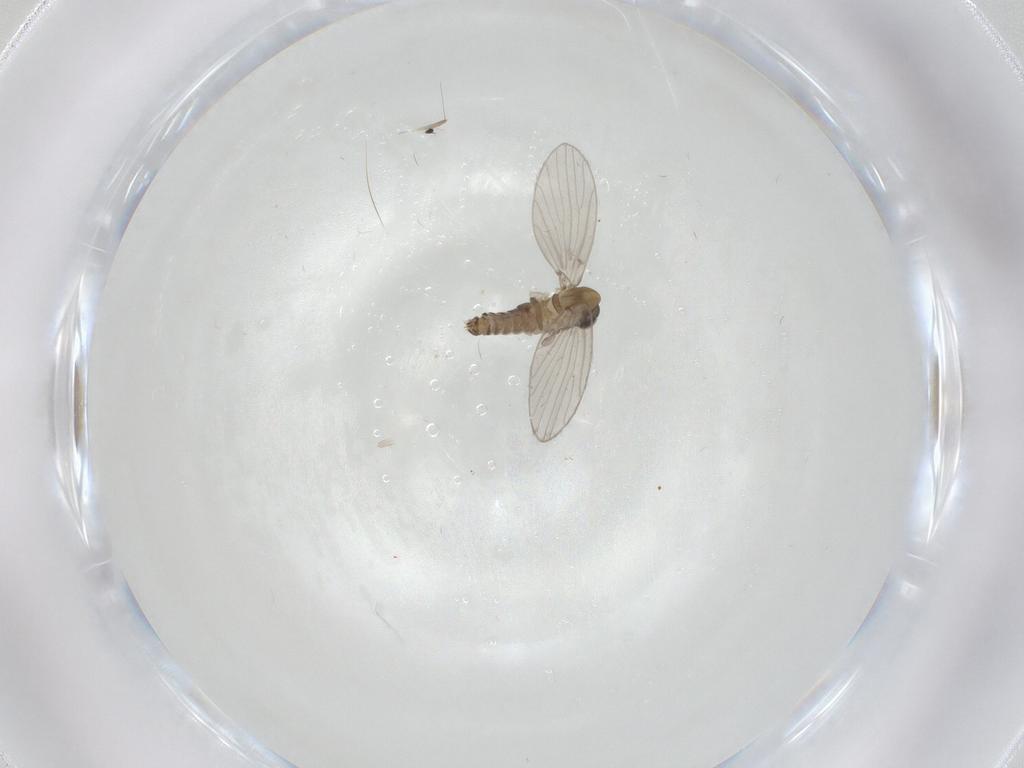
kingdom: Animalia
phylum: Arthropoda
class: Insecta
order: Diptera
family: Psychodidae
